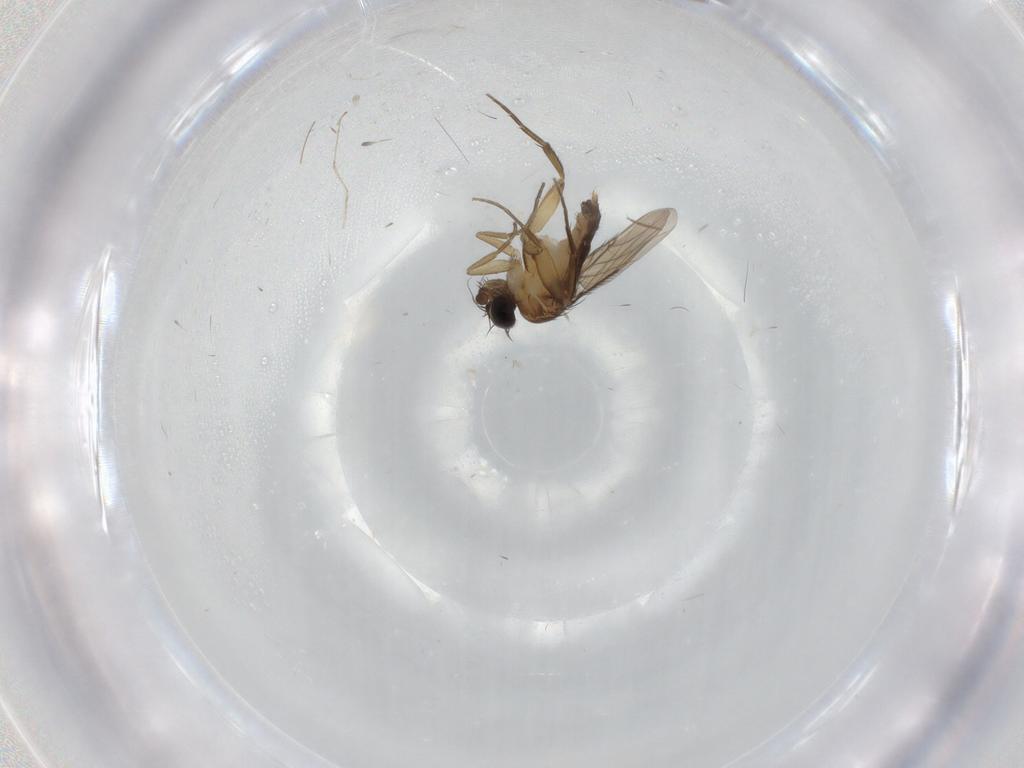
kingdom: Animalia
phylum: Arthropoda
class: Insecta
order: Diptera
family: Phoridae
